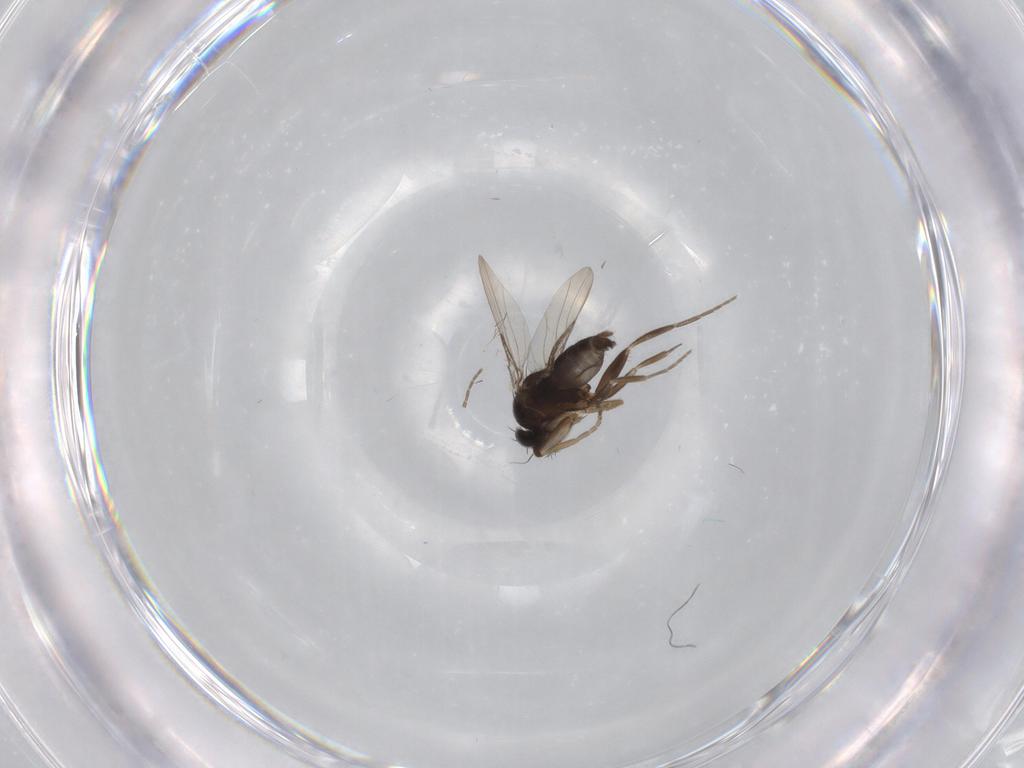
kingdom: Animalia
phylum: Arthropoda
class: Insecta
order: Diptera
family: Phoridae
